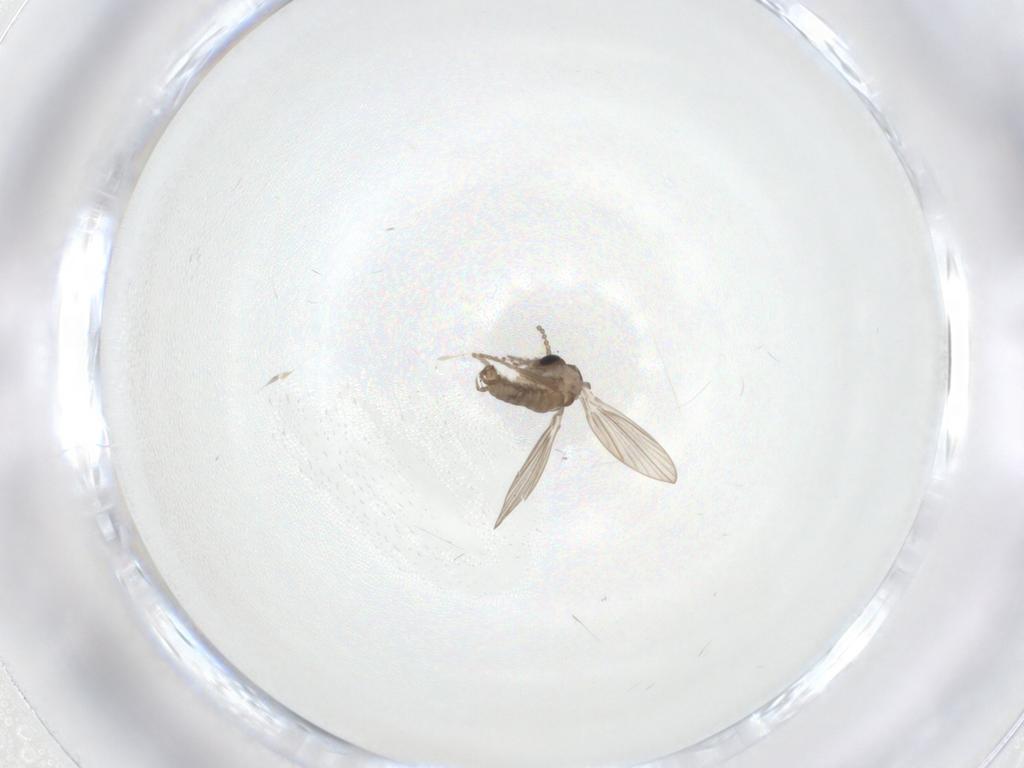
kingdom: Animalia
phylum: Arthropoda
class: Insecta
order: Diptera
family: Psychodidae
